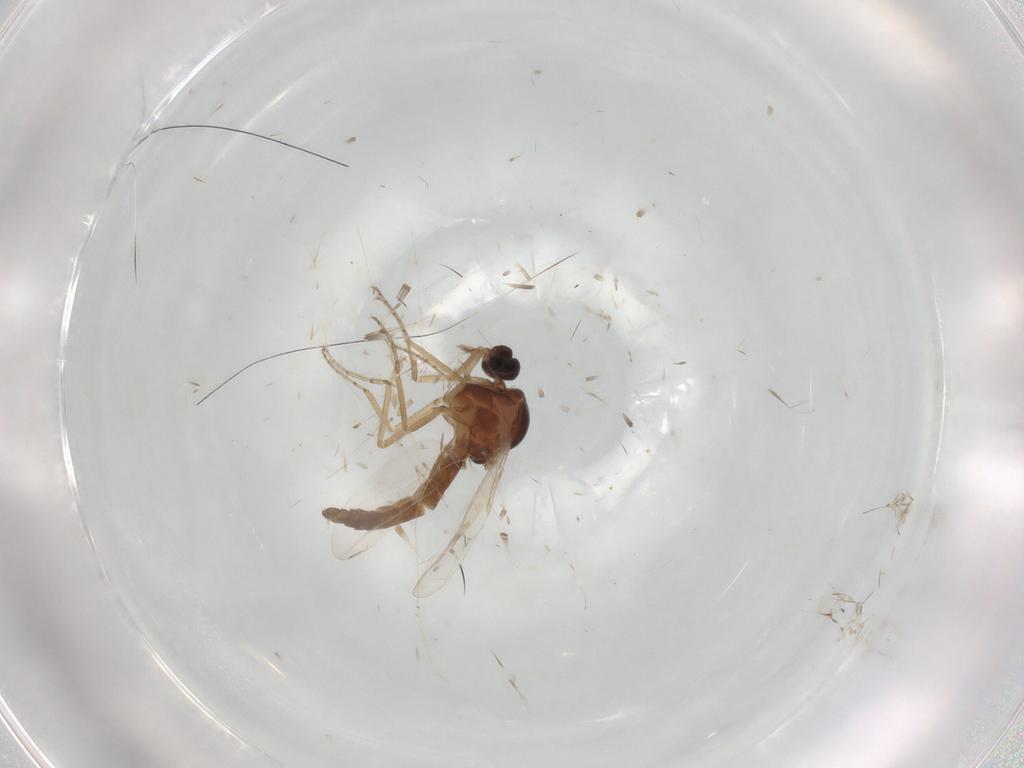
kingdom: Animalia
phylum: Arthropoda
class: Insecta
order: Diptera
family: Ceratopogonidae
